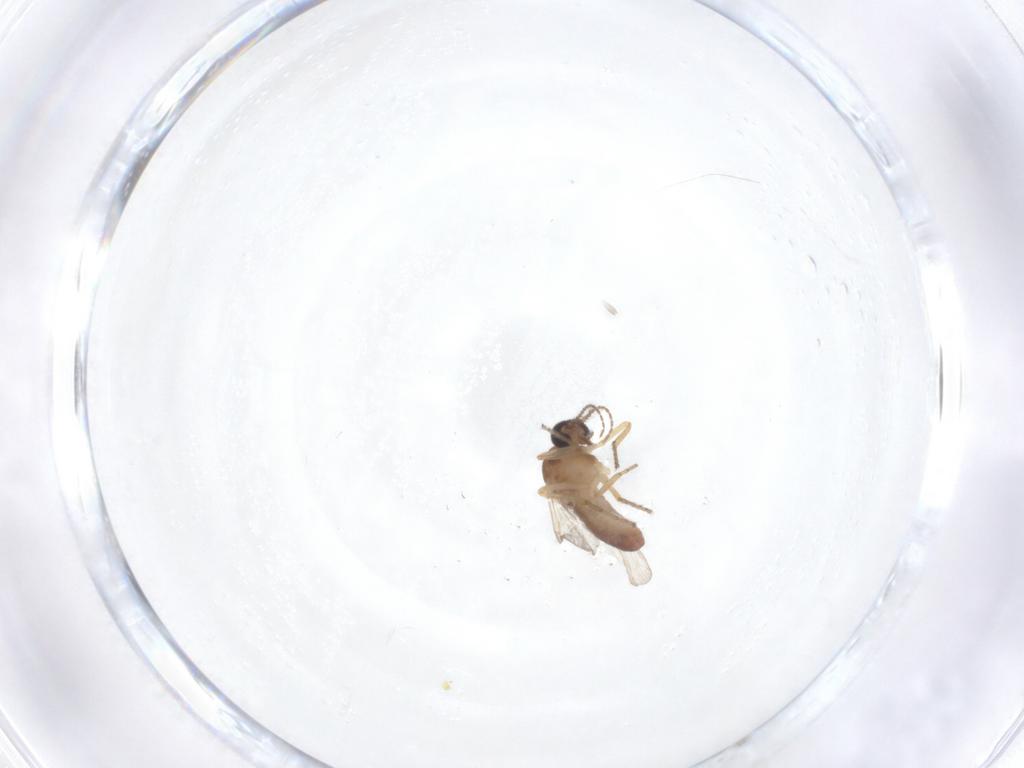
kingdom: Animalia
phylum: Arthropoda
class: Insecta
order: Diptera
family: Ceratopogonidae
